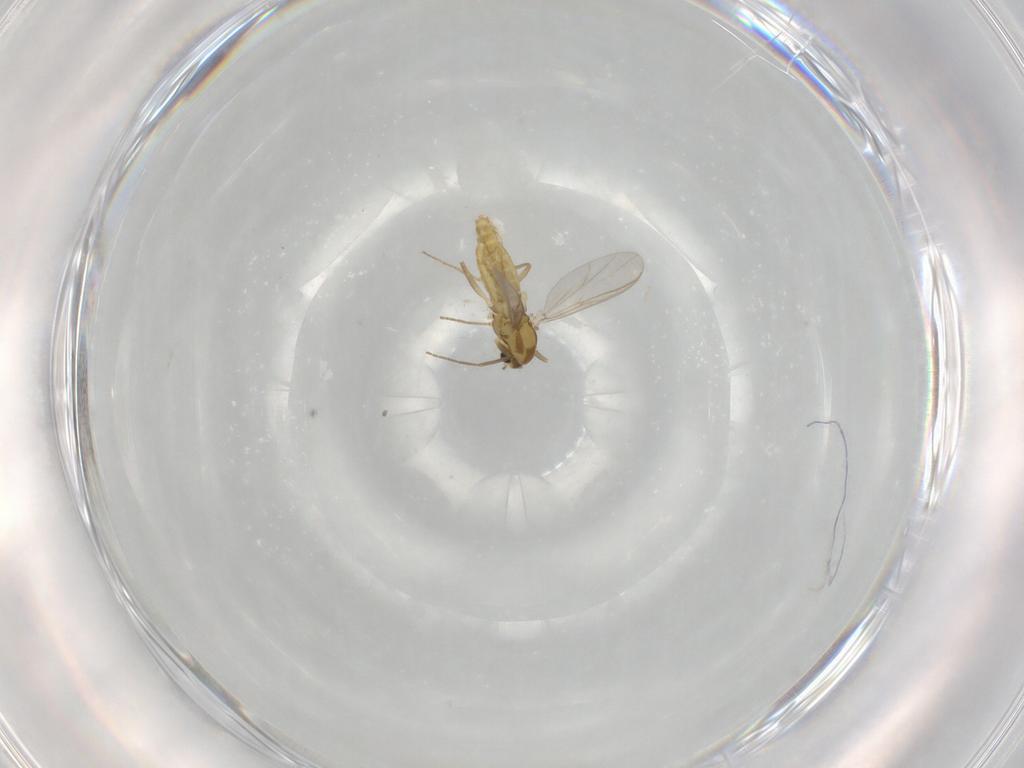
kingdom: Animalia
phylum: Arthropoda
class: Insecta
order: Diptera
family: Chironomidae
